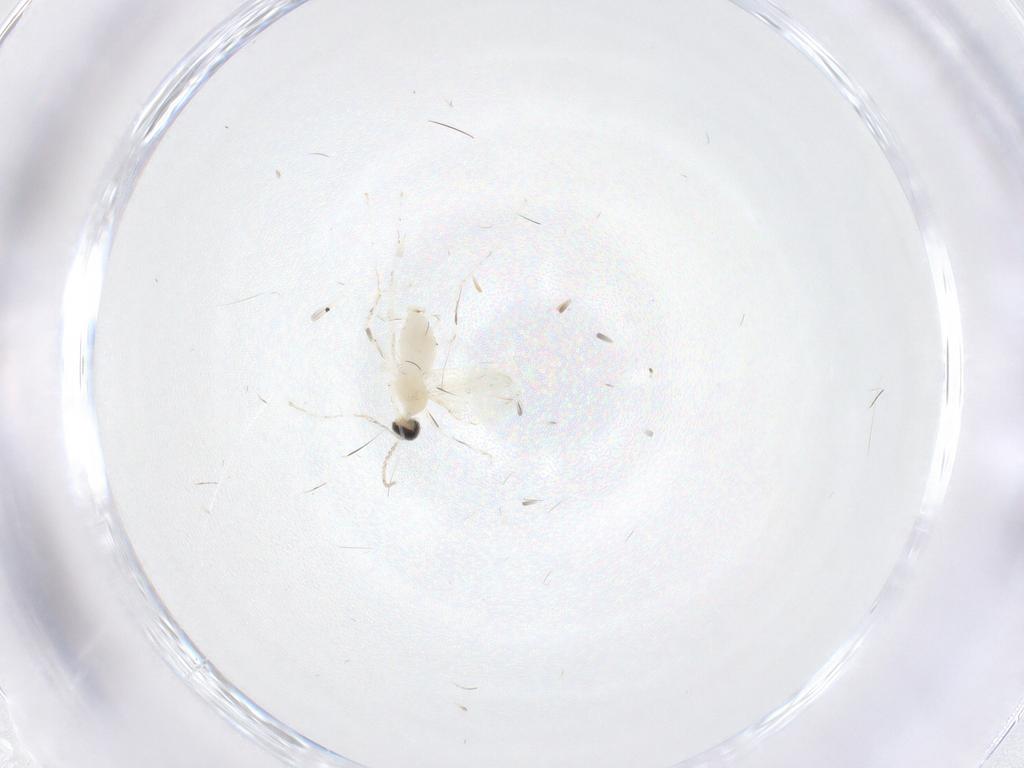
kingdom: Animalia
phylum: Arthropoda
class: Insecta
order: Diptera
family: Cecidomyiidae
